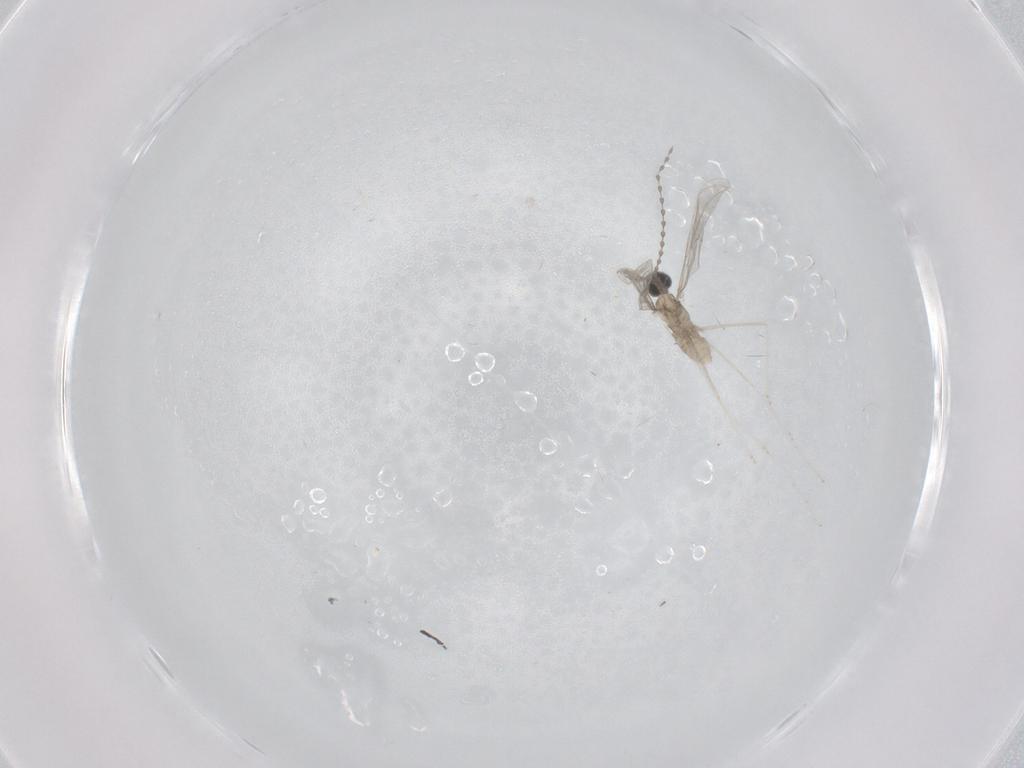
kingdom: Animalia
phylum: Arthropoda
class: Insecta
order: Diptera
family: Cecidomyiidae
